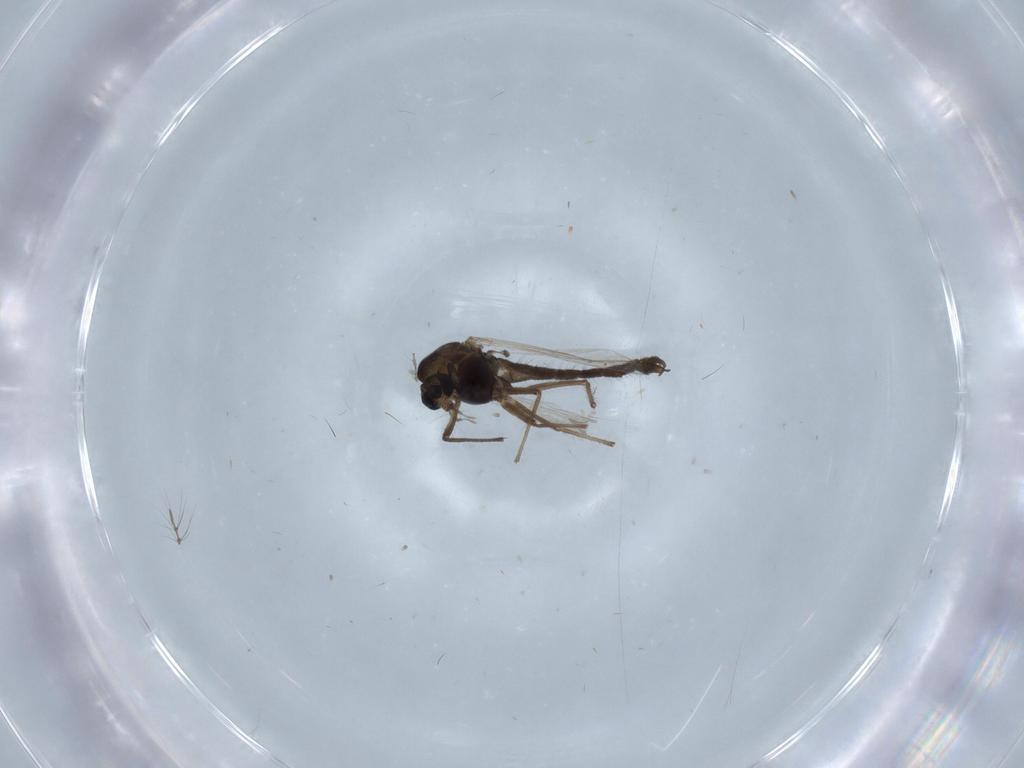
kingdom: Animalia
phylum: Arthropoda
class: Insecta
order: Diptera
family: Chironomidae
